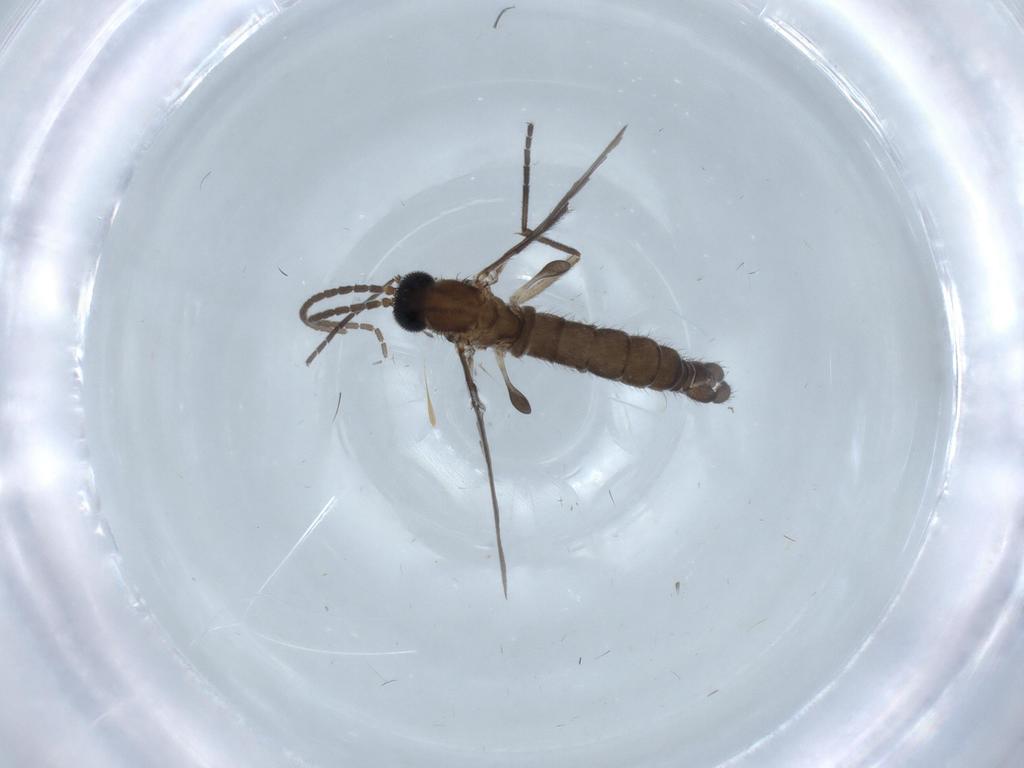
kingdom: Animalia
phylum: Arthropoda
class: Insecta
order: Diptera
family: Sciaridae
